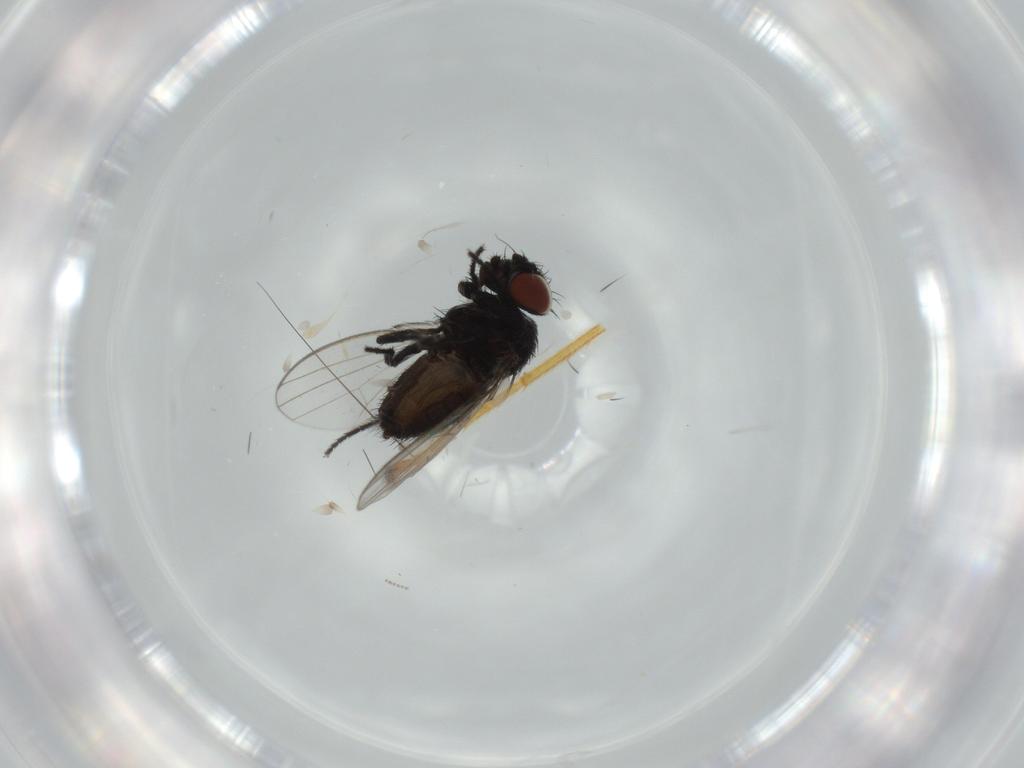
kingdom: Animalia
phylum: Arthropoda
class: Insecta
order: Diptera
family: Milichiidae
